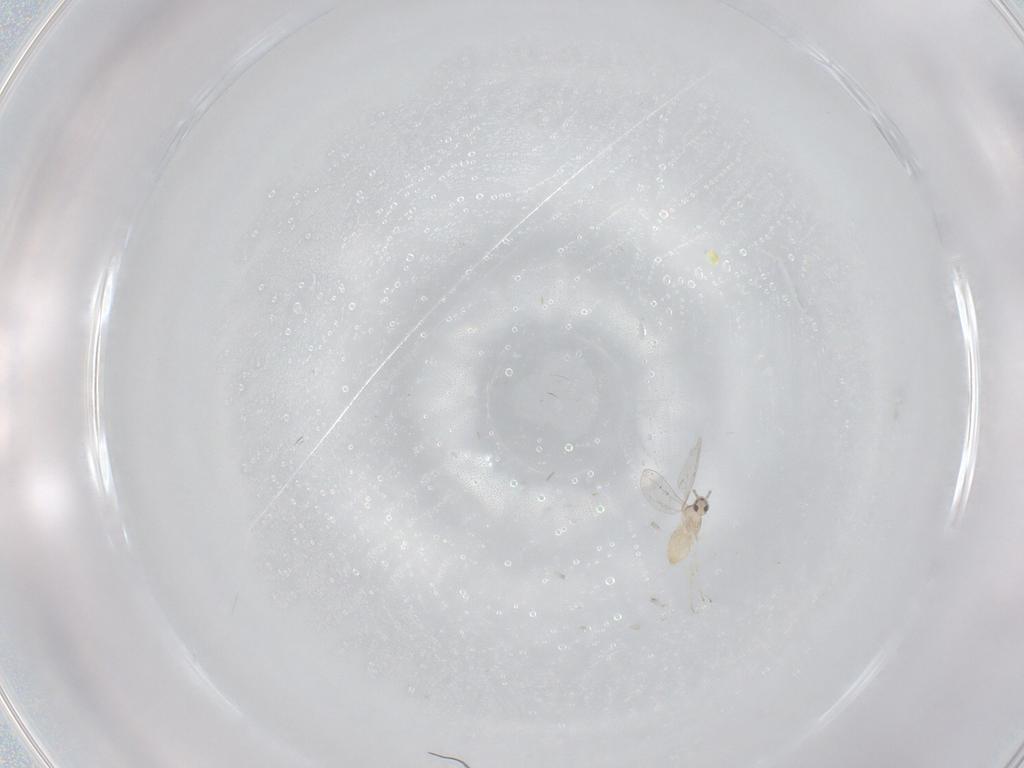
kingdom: Animalia
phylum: Arthropoda
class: Insecta
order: Diptera
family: Cecidomyiidae
